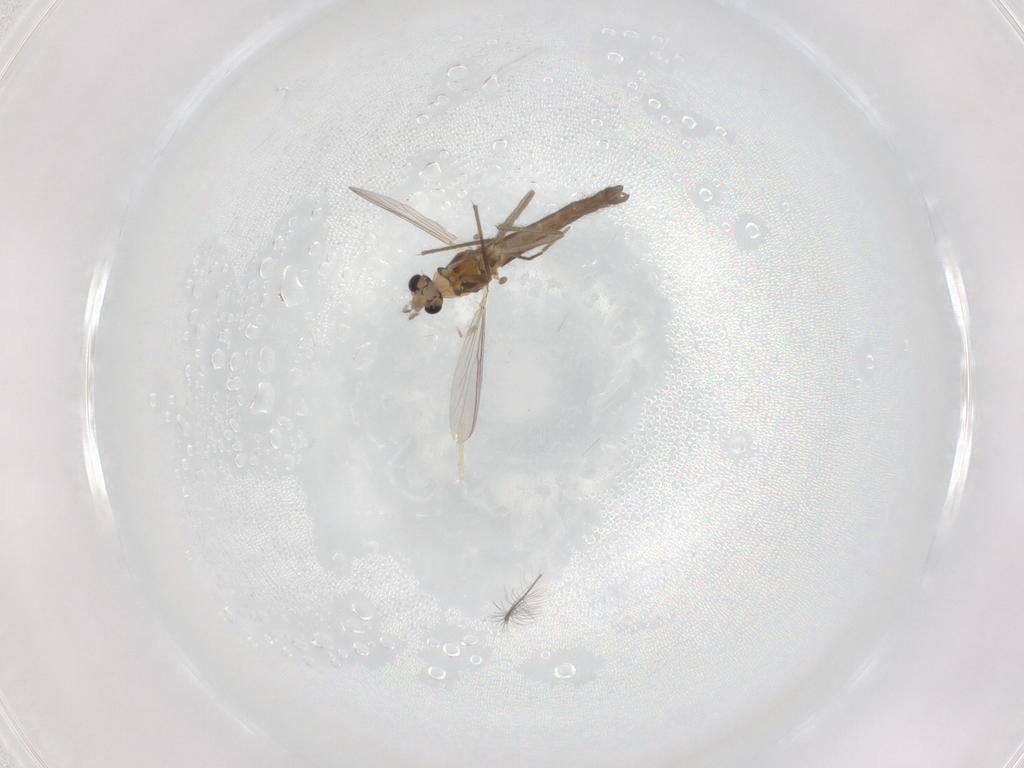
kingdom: Animalia
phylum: Arthropoda
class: Insecta
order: Diptera
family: Chironomidae
